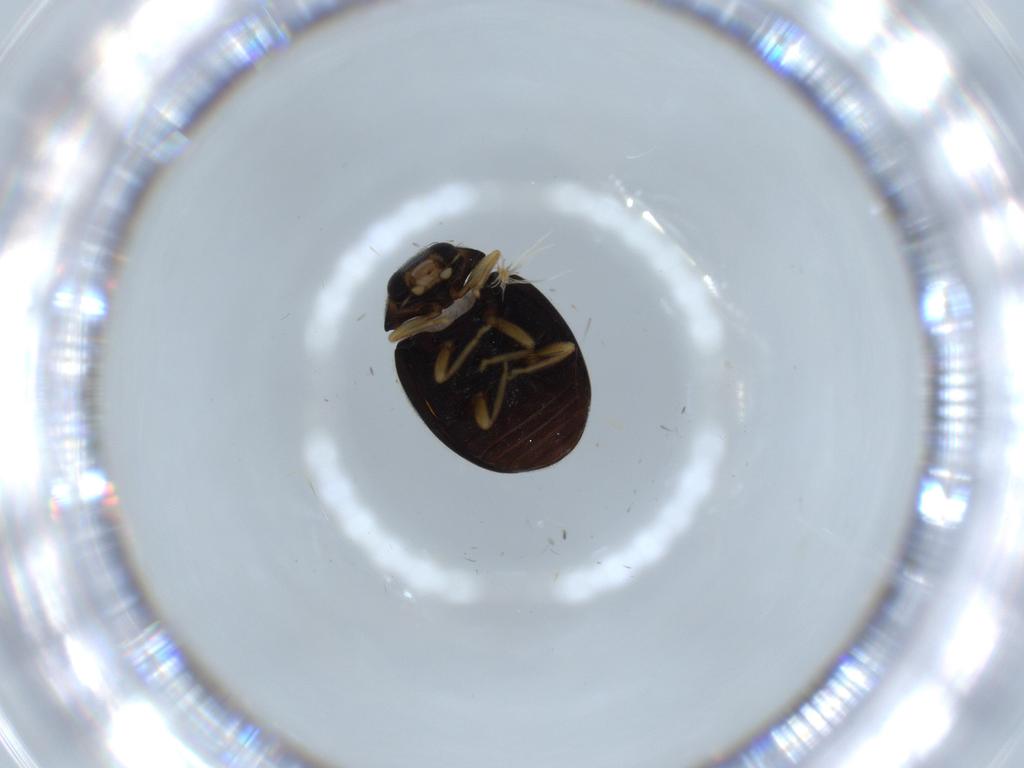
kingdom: Animalia
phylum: Arthropoda
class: Insecta
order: Coleoptera
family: Coccinellidae
